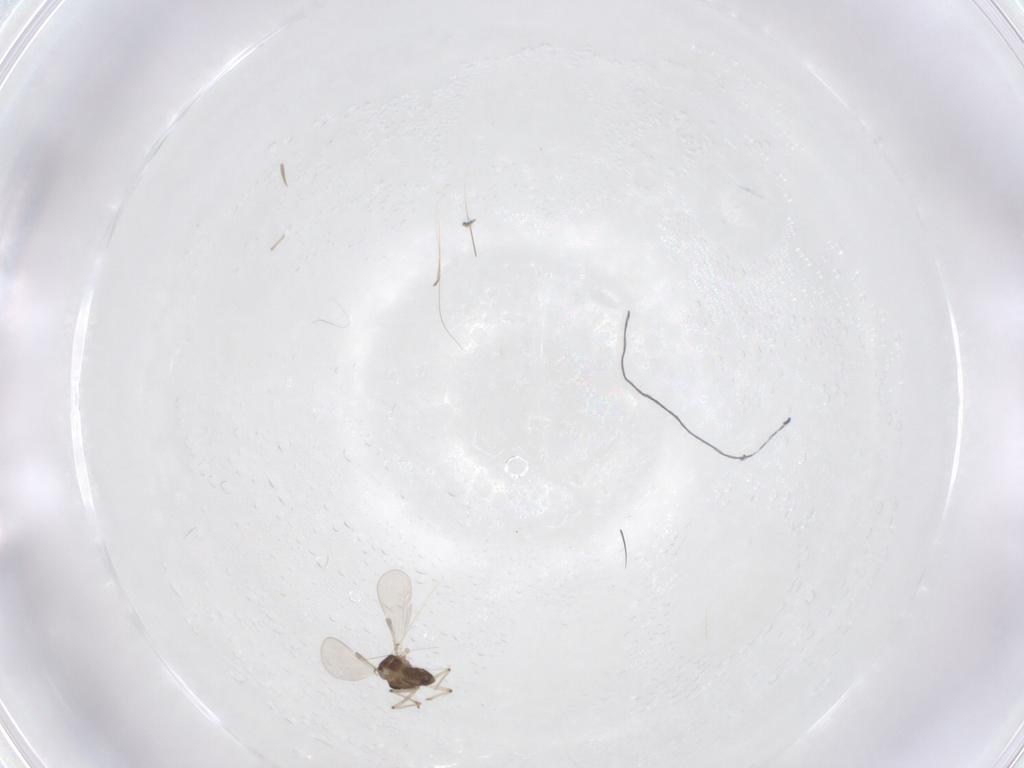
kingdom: Animalia
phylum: Arthropoda
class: Insecta
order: Diptera
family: Chironomidae
